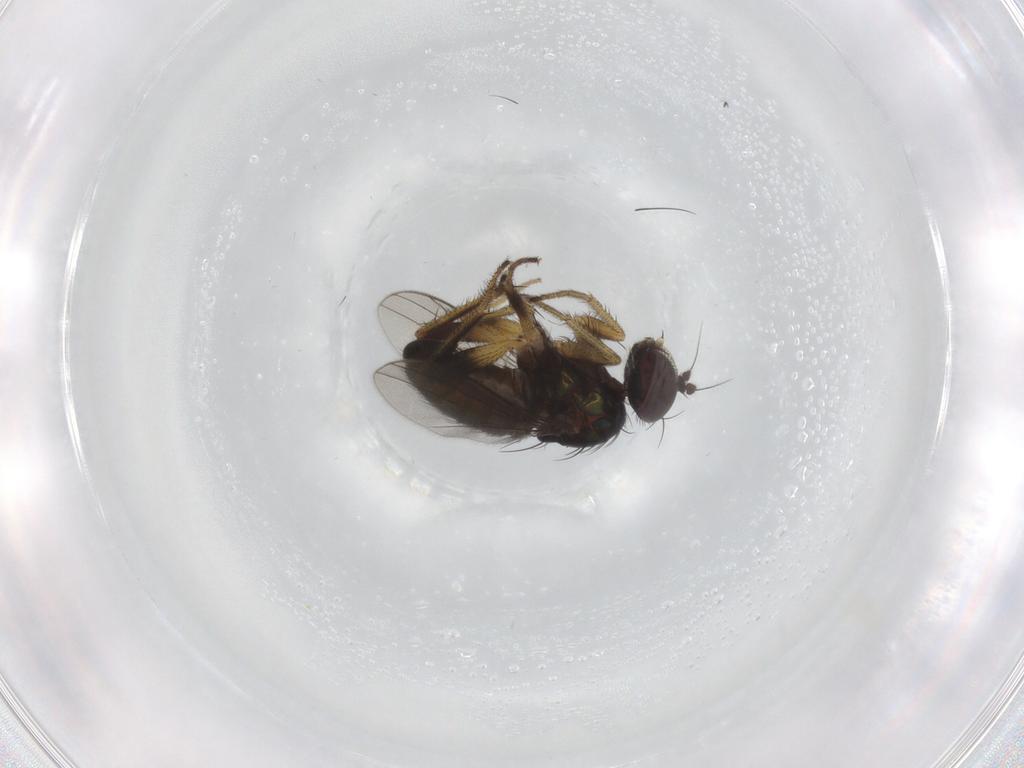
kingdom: Animalia
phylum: Arthropoda
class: Insecta
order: Diptera
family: Dolichopodidae
